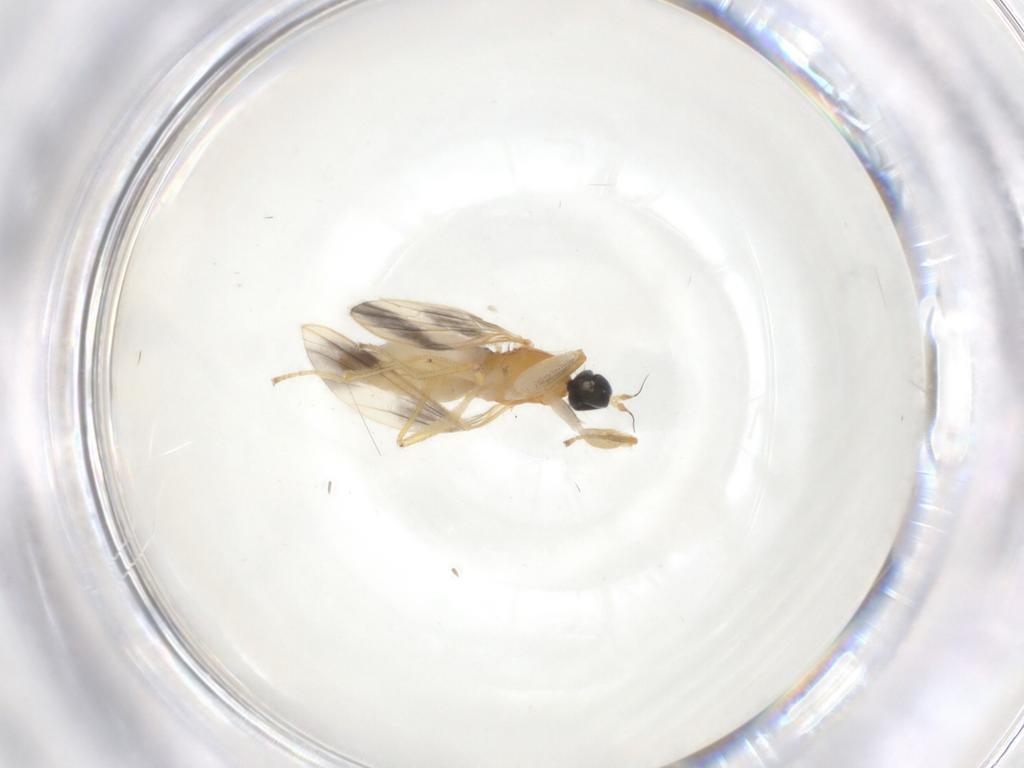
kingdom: Animalia
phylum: Arthropoda
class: Insecta
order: Diptera
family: Empididae
